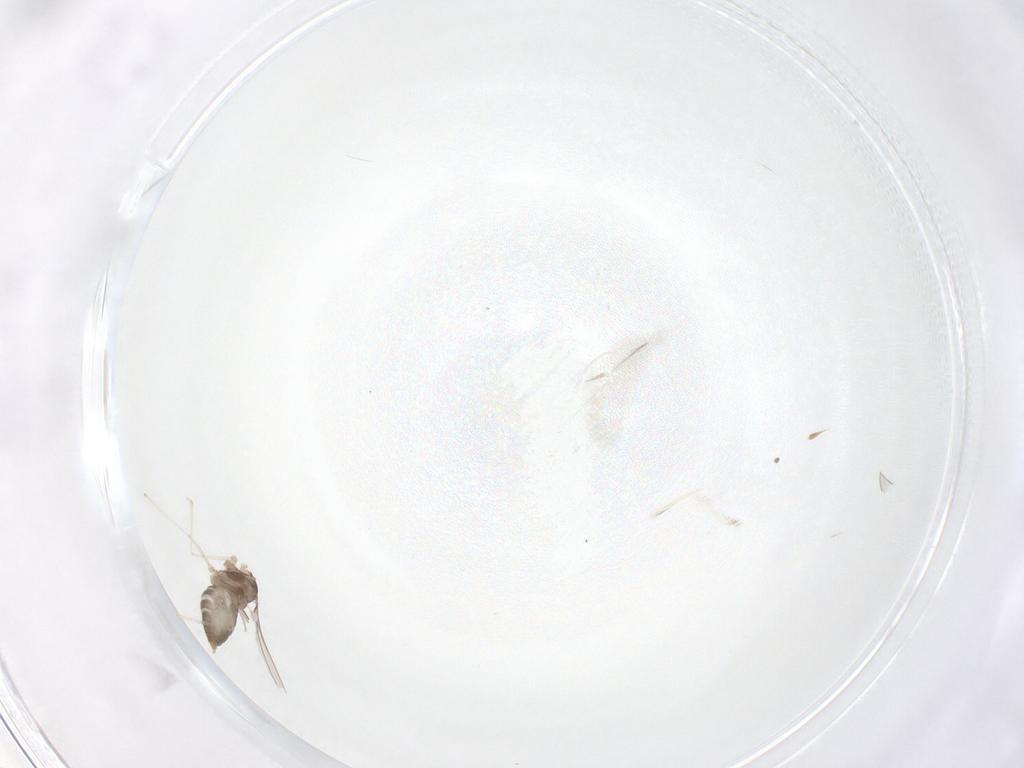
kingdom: Animalia
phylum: Arthropoda
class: Insecta
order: Diptera
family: Cecidomyiidae
